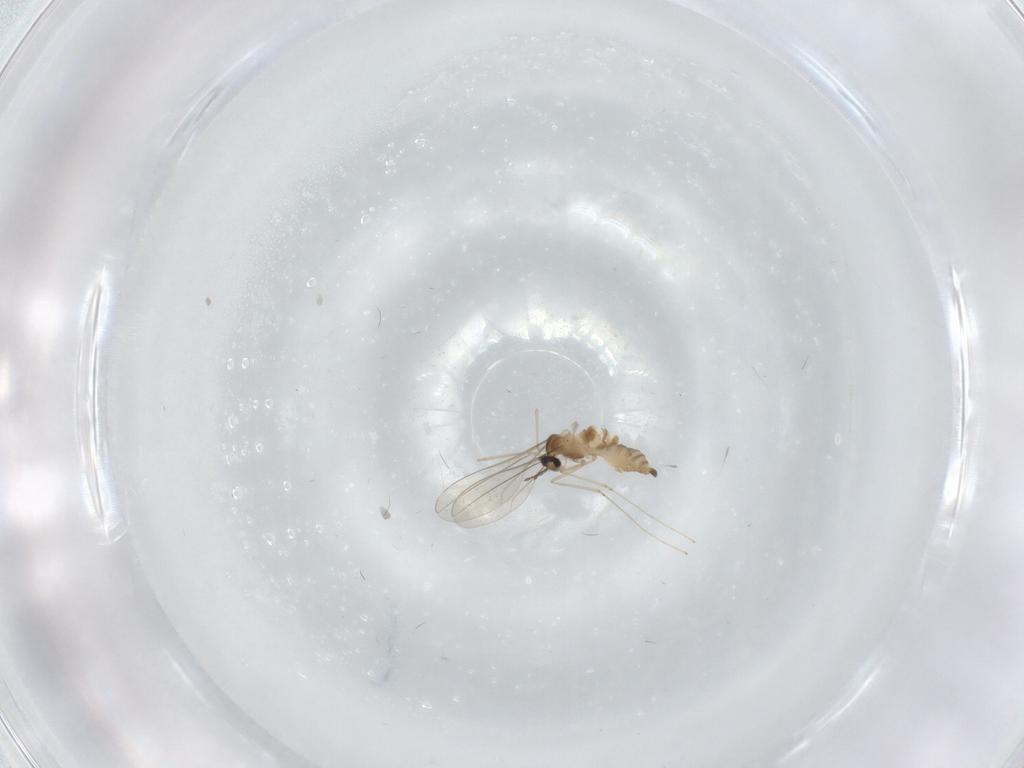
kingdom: Animalia
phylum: Arthropoda
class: Insecta
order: Diptera
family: Cecidomyiidae
